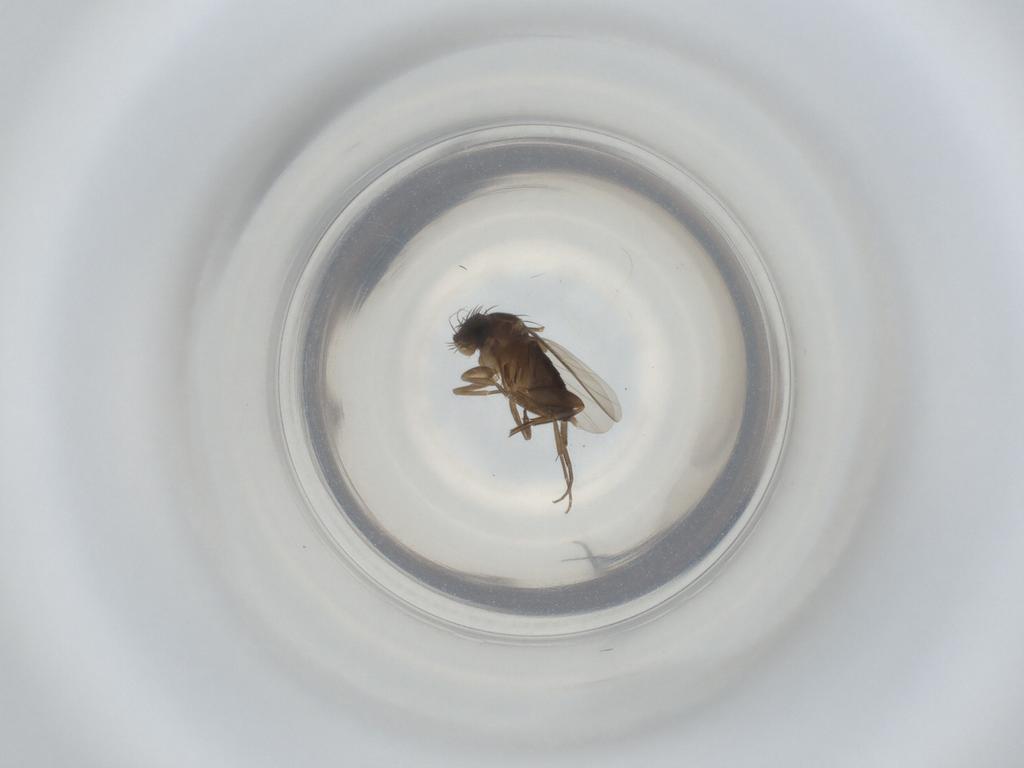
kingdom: Animalia
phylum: Arthropoda
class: Insecta
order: Diptera
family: Phoridae
